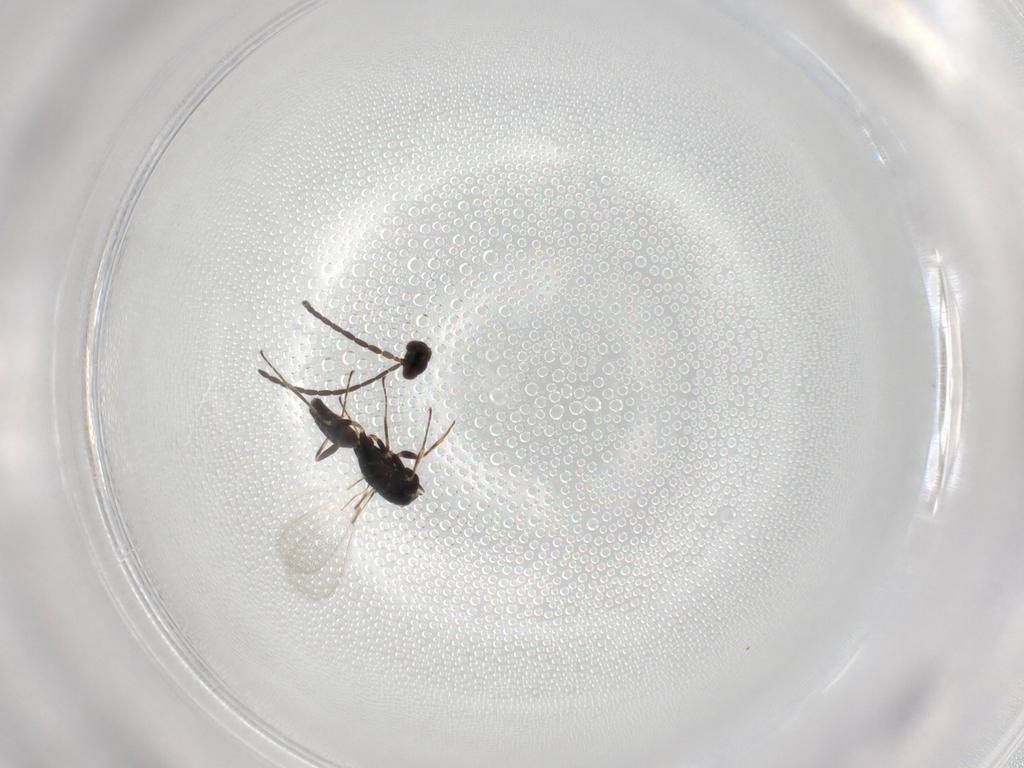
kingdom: Animalia
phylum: Arthropoda
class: Insecta
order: Hymenoptera
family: Mymaridae
